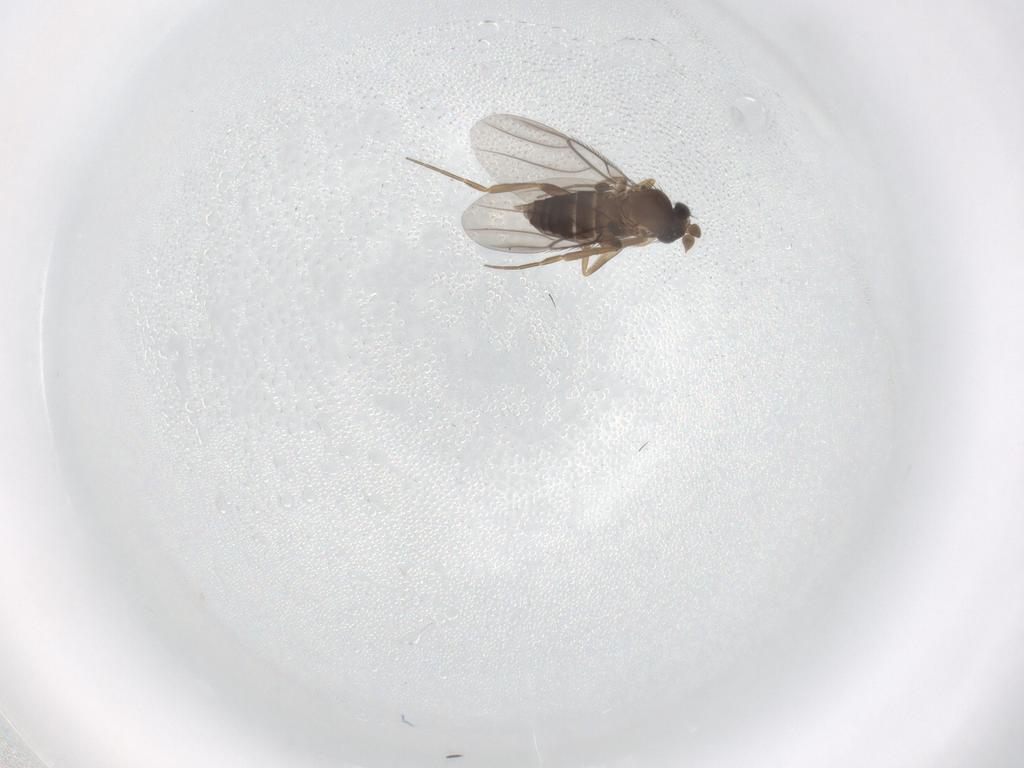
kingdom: Animalia
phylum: Arthropoda
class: Insecta
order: Diptera
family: Phoridae
